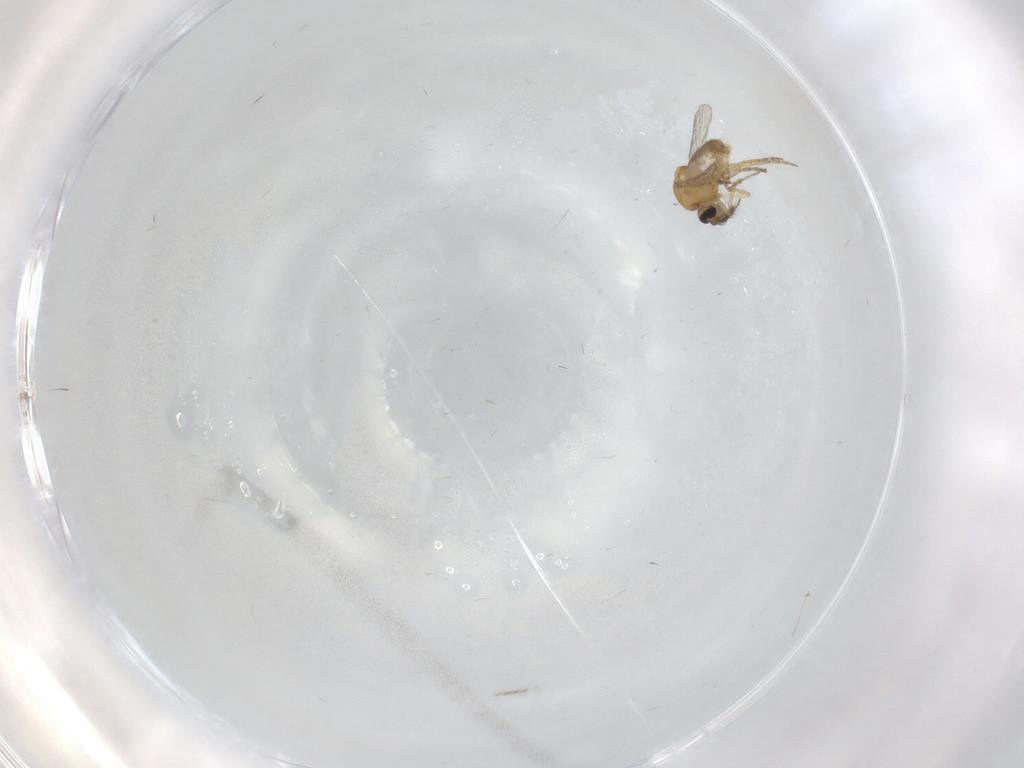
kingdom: Animalia
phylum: Arthropoda
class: Insecta
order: Diptera
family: Cecidomyiidae
